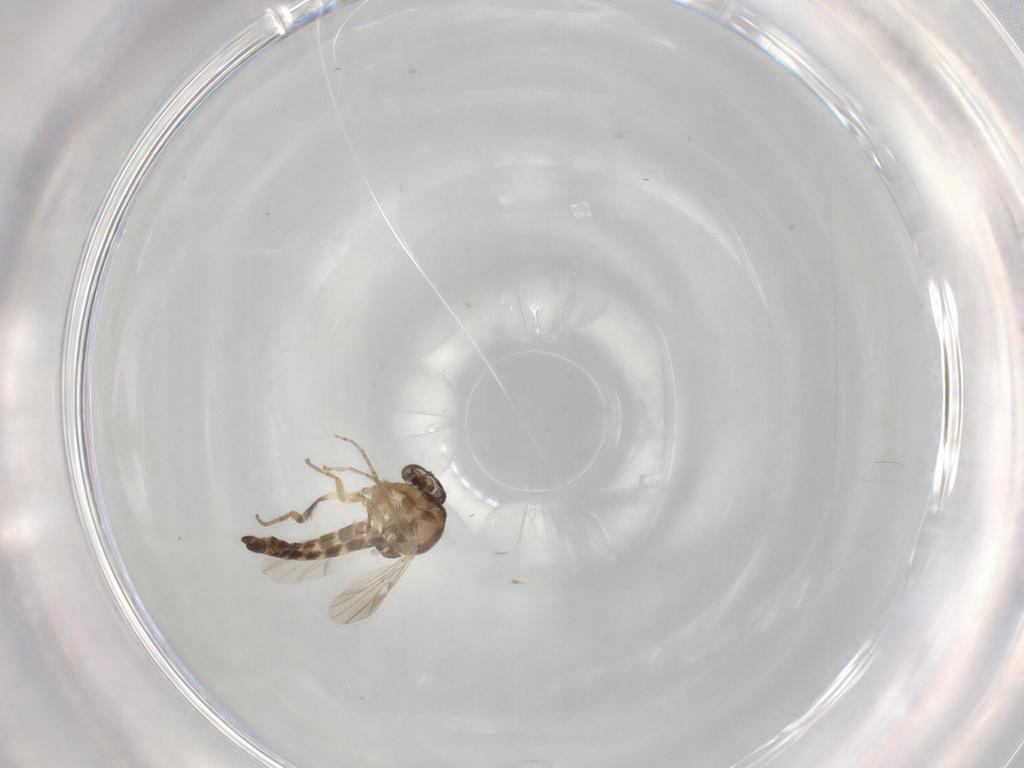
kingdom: Animalia
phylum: Arthropoda
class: Insecta
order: Diptera
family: Ceratopogonidae
